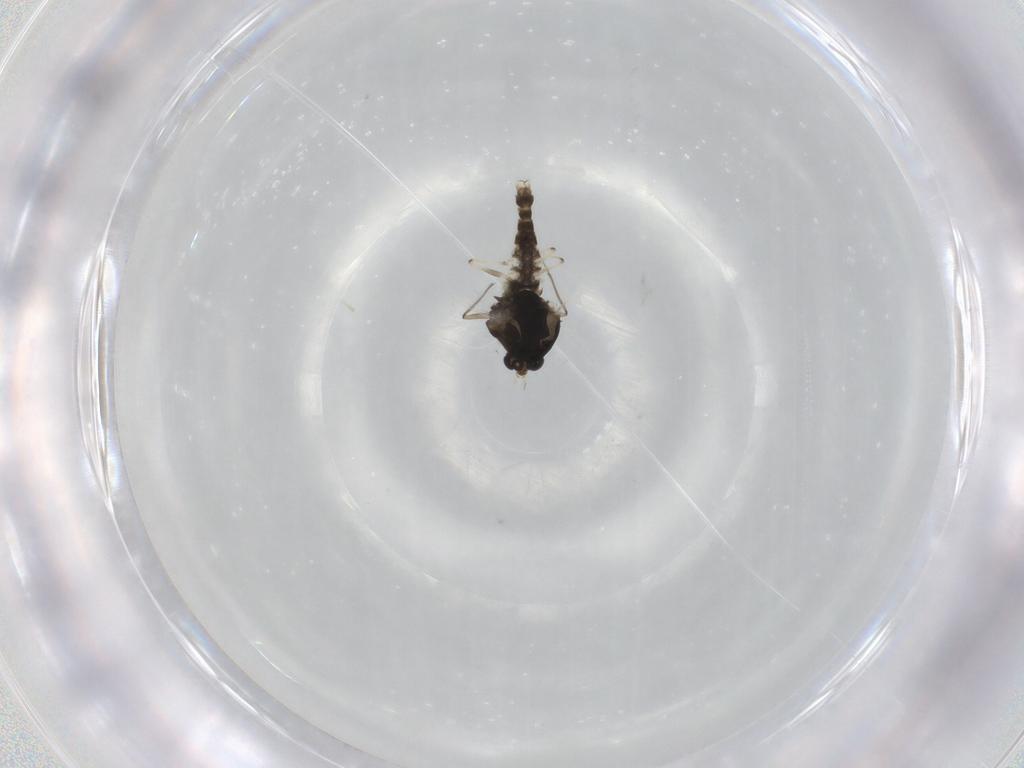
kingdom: Animalia
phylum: Arthropoda
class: Insecta
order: Diptera
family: Chironomidae
